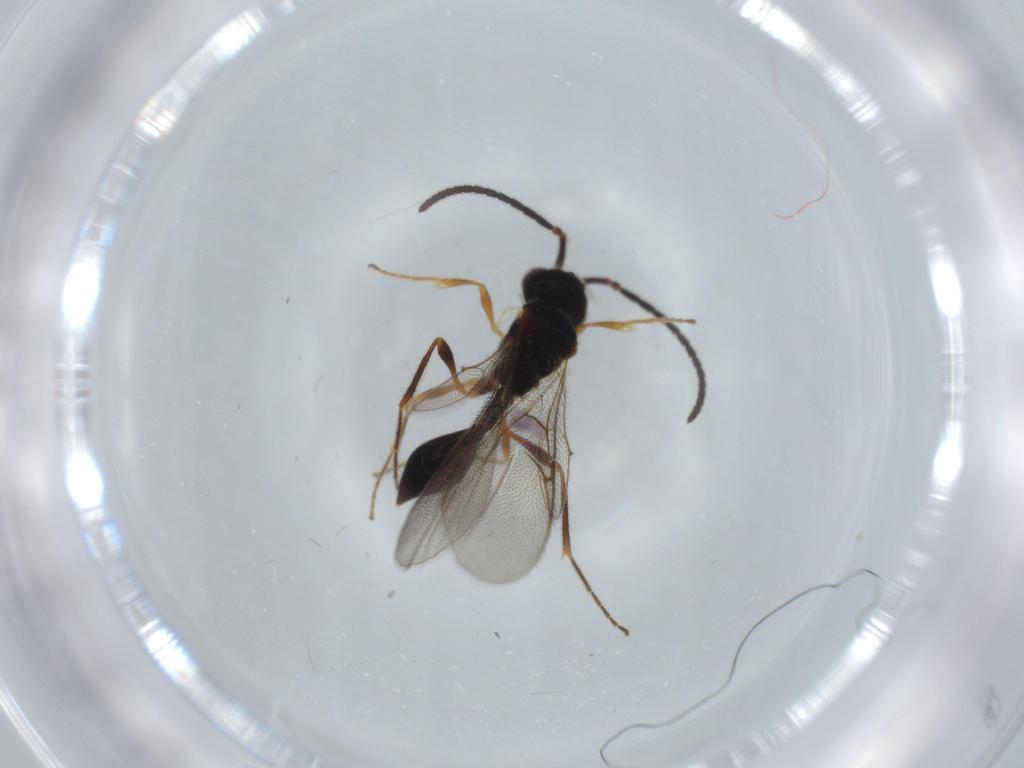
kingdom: Animalia
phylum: Arthropoda
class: Insecta
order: Hymenoptera
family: Formicidae
